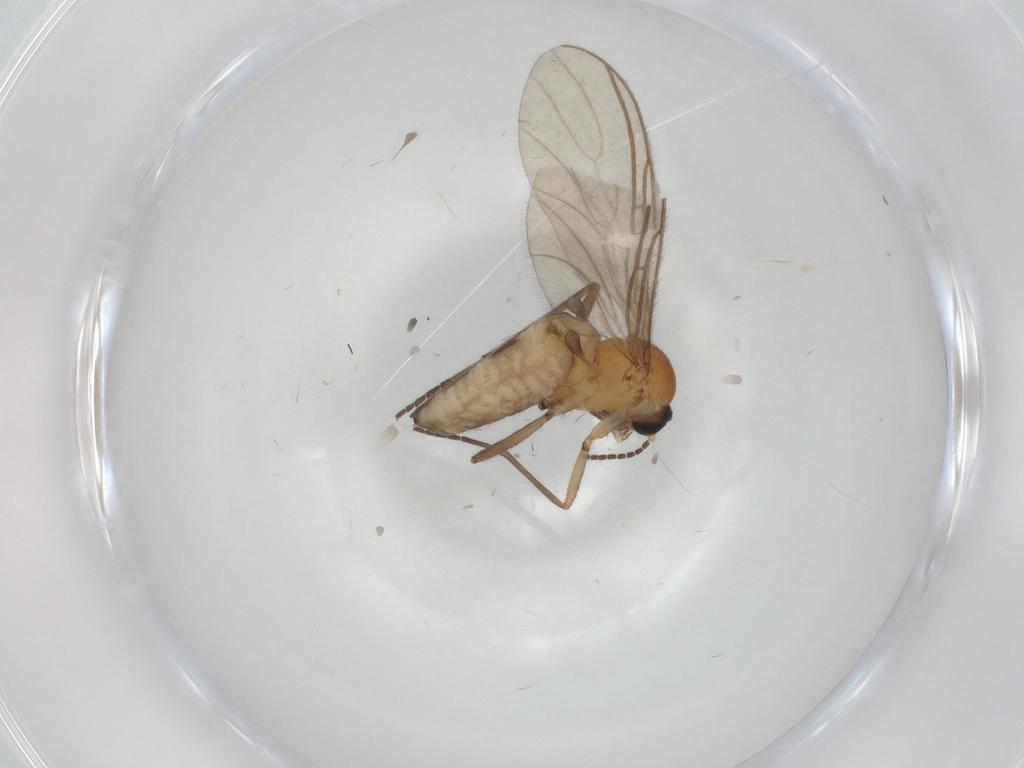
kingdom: Animalia
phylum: Arthropoda
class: Insecta
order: Diptera
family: Sciaridae
